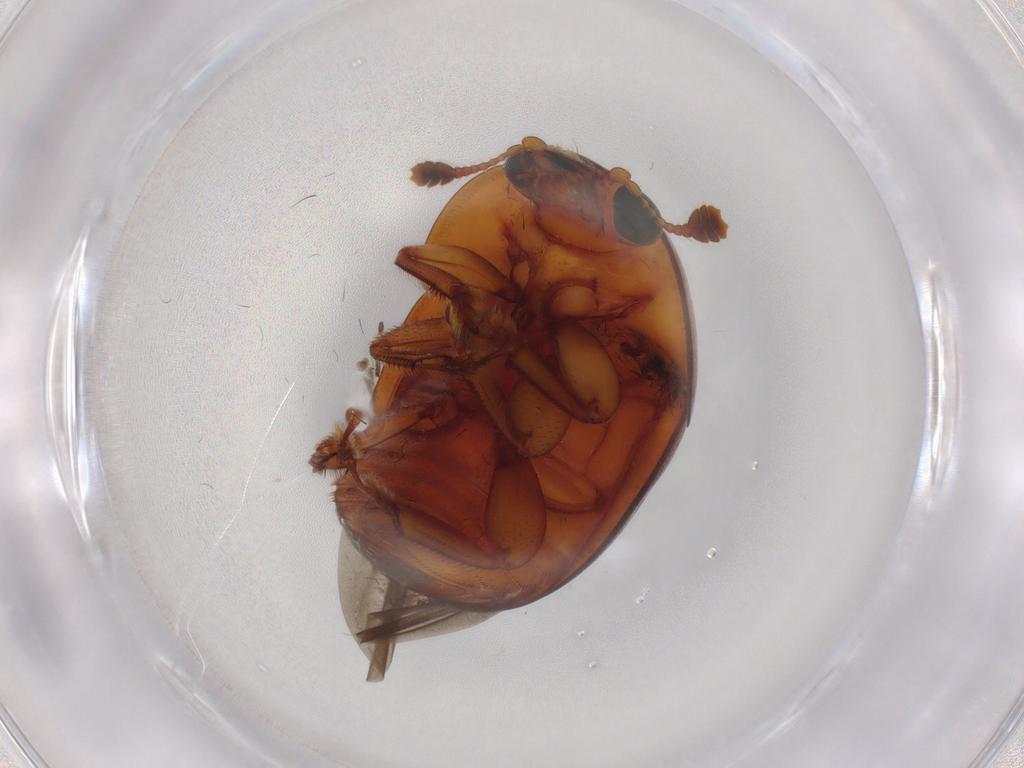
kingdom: Animalia
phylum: Arthropoda
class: Insecta
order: Coleoptera
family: Nitidulidae
